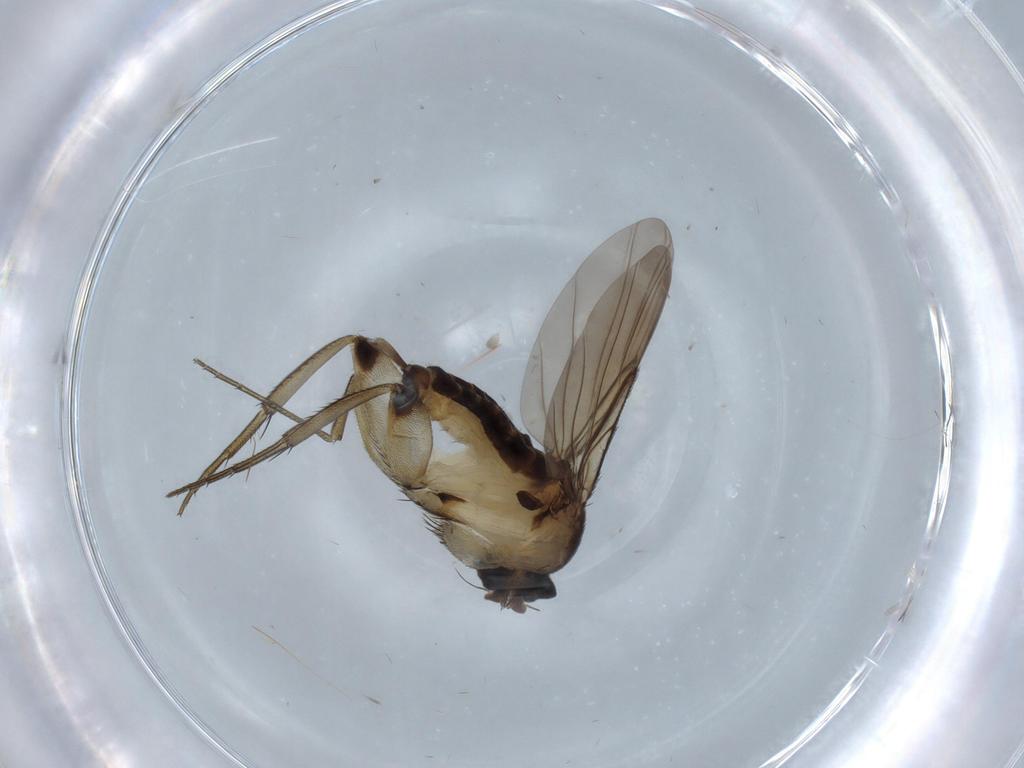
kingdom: Animalia
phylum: Arthropoda
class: Insecta
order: Diptera
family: Cecidomyiidae
